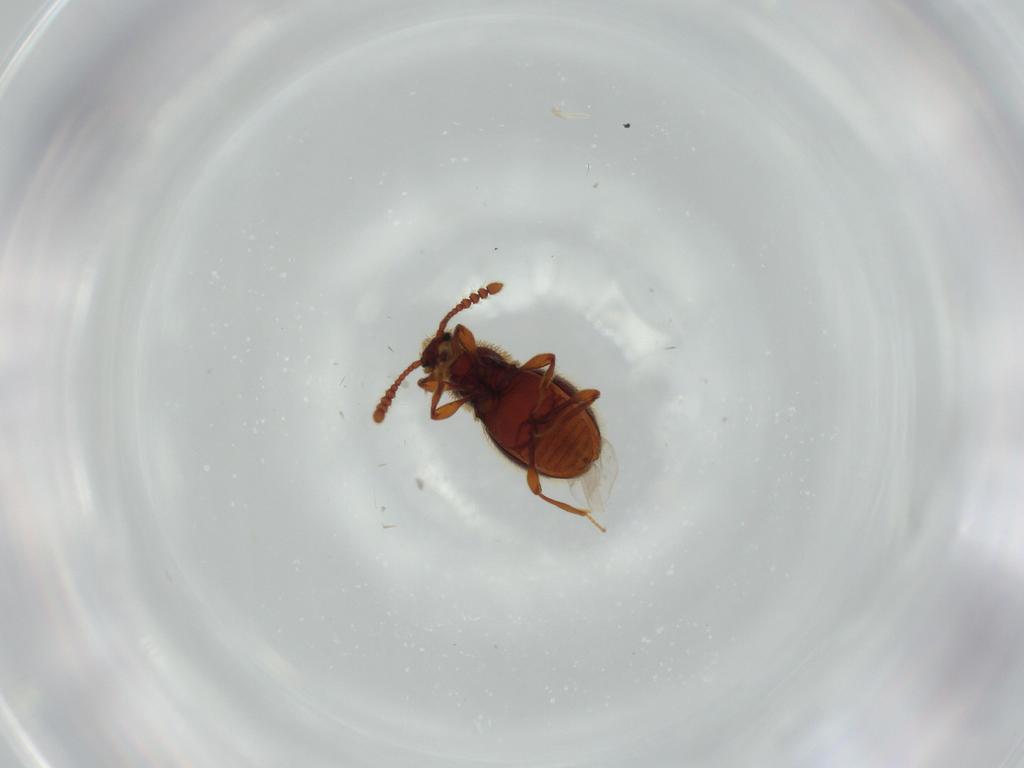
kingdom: Animalia
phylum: Arthropoda
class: Insecta
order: Coleoptera
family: Staphylinidae
